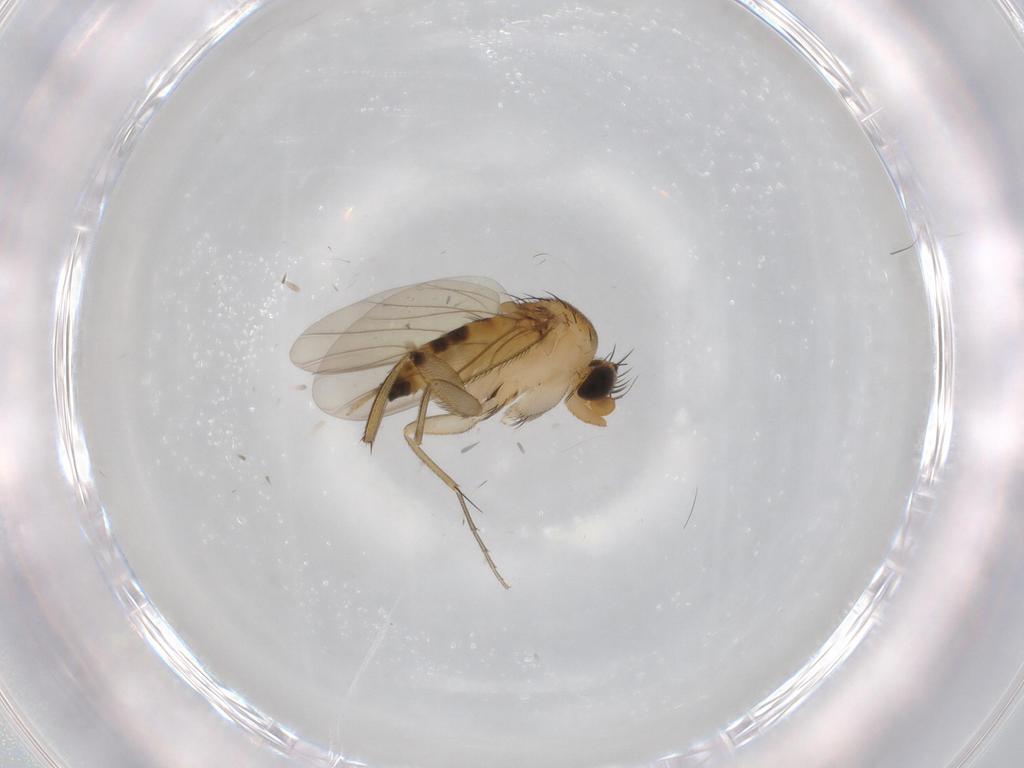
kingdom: Animalia
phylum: Arthropoda
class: Insecta
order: Diptera
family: Phoridae
